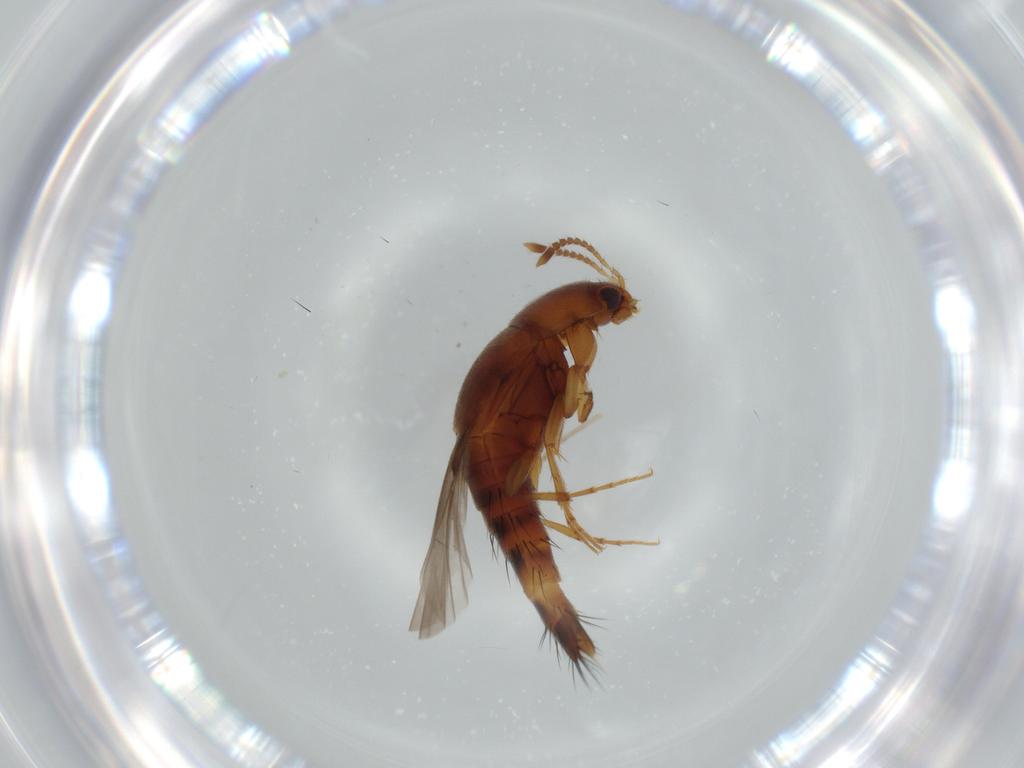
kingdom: Animalia
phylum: Arthropoda
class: Insecta
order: Coleoptera
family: Staphylinidae
